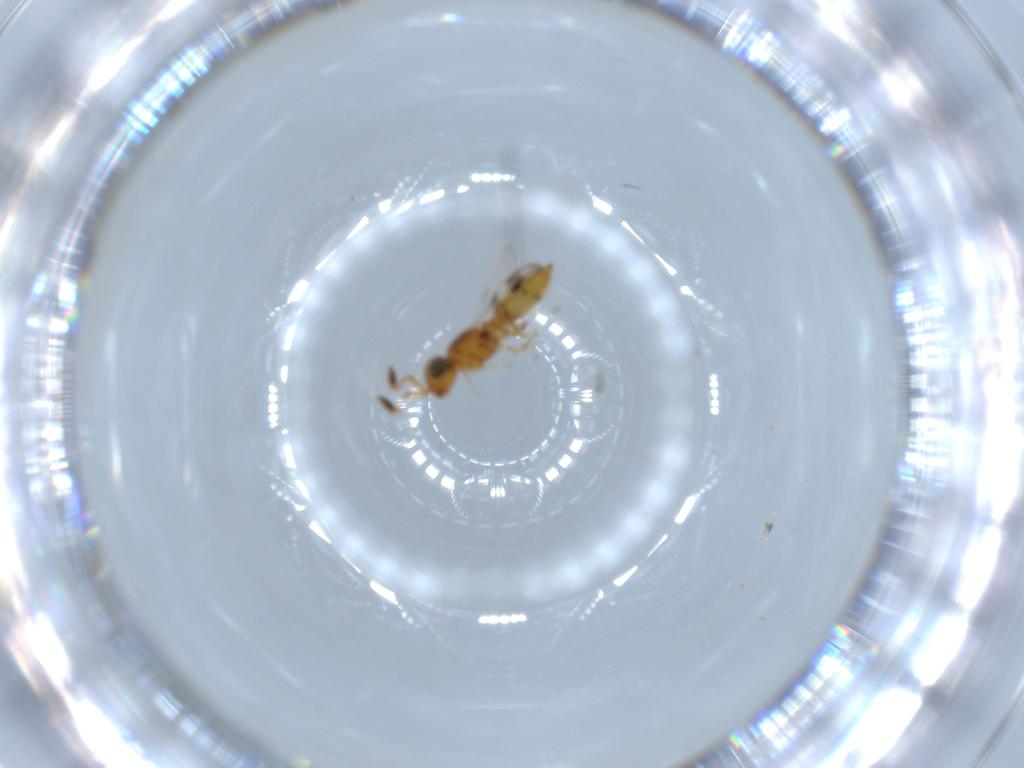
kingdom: Animalia
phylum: Arthropoda
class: Insecta
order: Hymenoptera
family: Scelionidae
